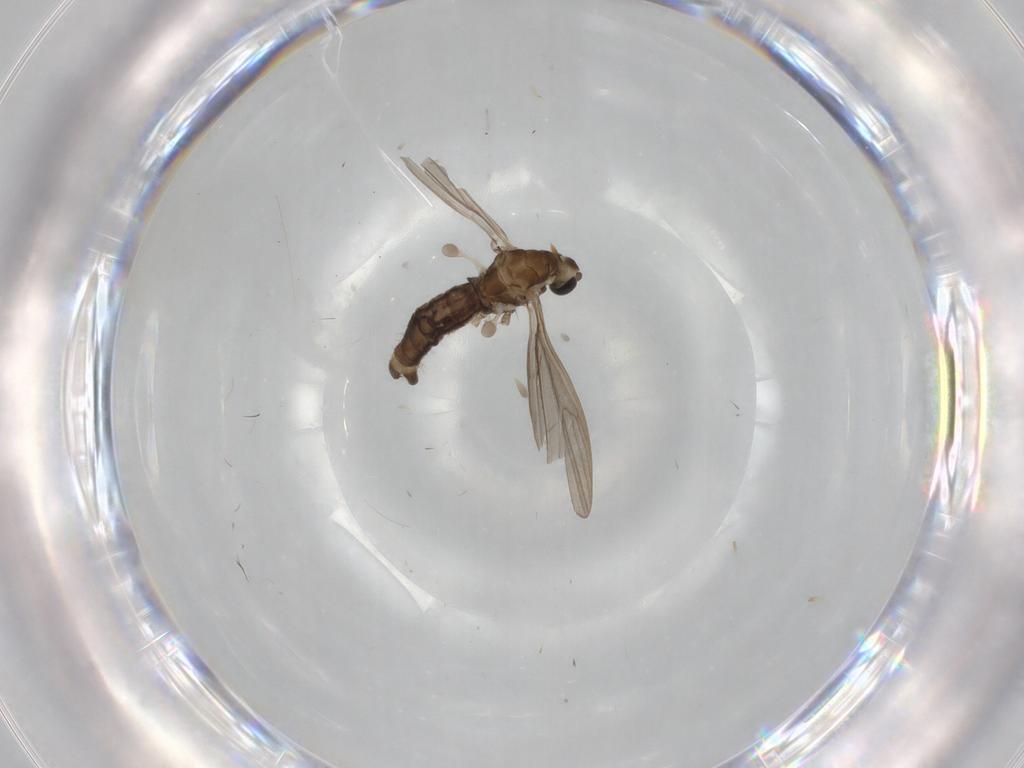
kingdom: Animalia
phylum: Arthropoda
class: Insecta
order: Diptera
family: Limoniidae
